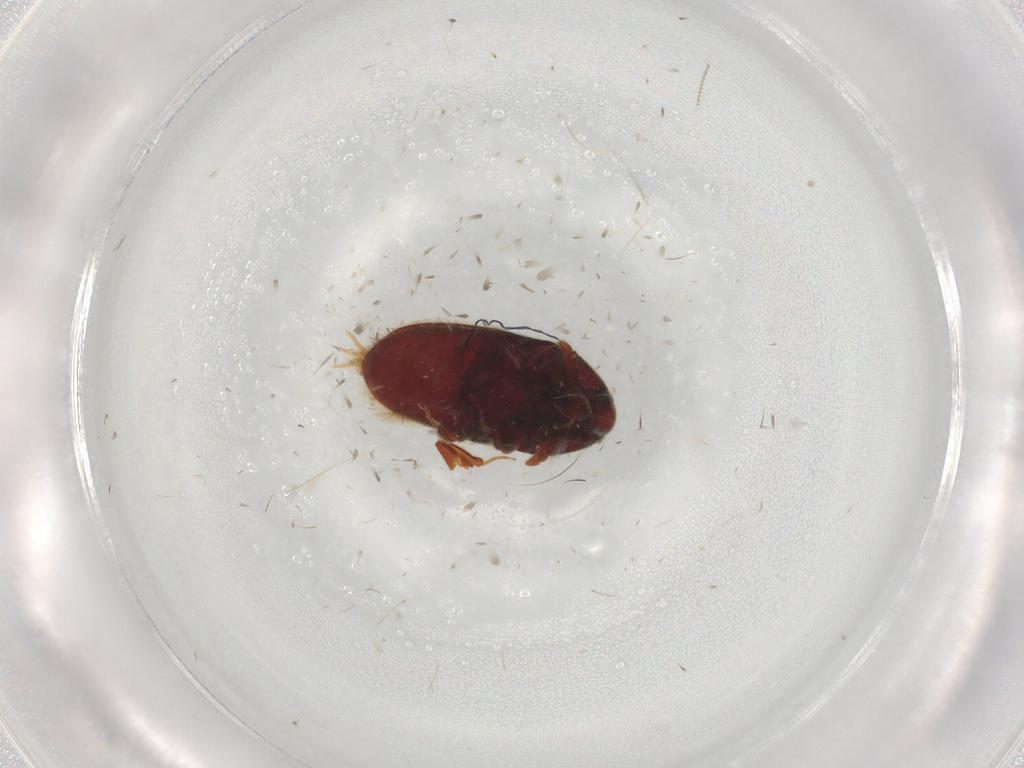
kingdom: Animalia
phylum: Arthropoda
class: Insecta
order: Coleoptera
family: Throscidae
